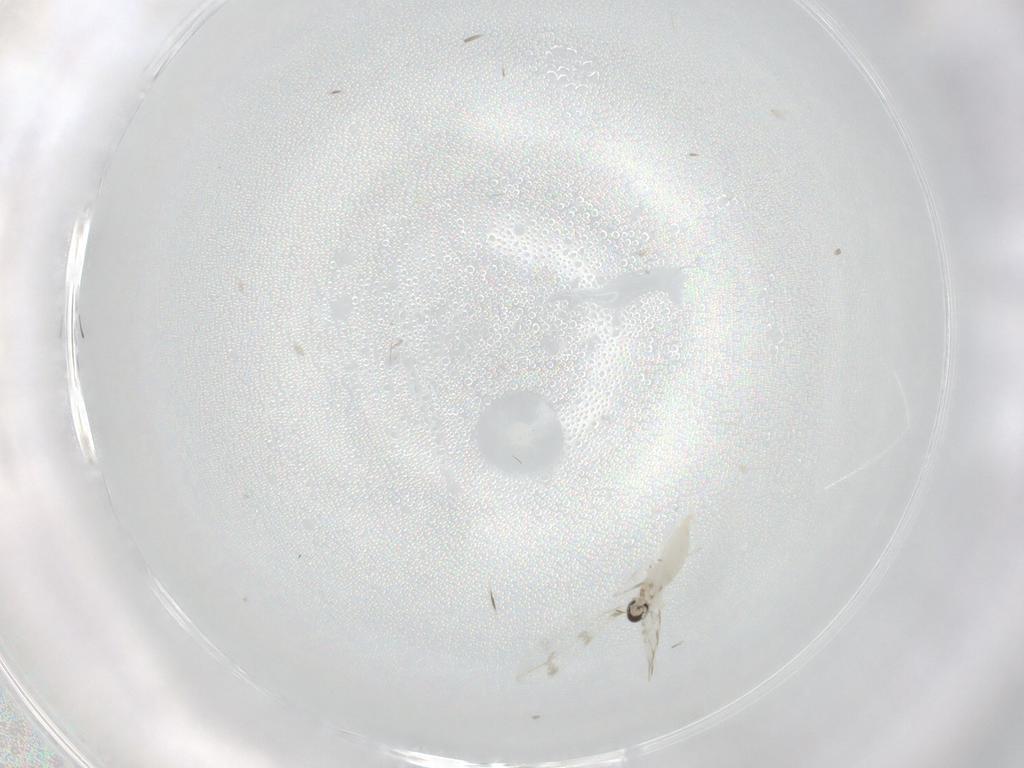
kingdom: Animalia
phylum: Arthropoda
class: Insecta
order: Diptera
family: Cecidomyiidae
